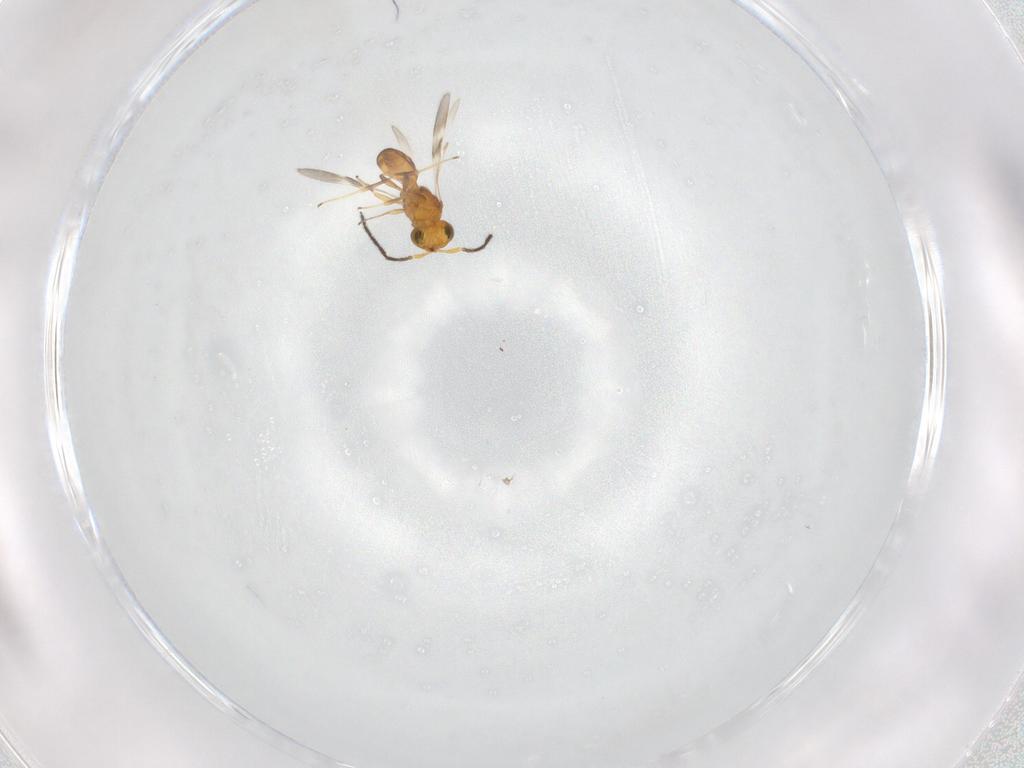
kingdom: Animalia
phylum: Arthropoda
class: Insecta
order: Hymenoptera
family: Scelionidae
